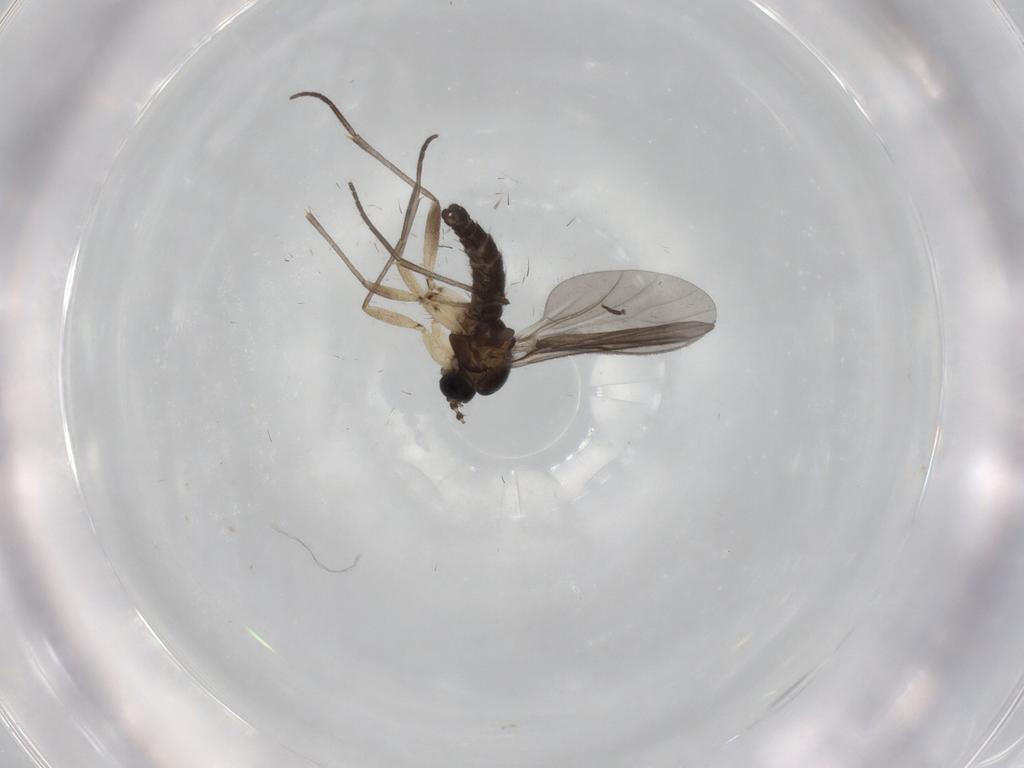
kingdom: Animalia
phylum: Arthropoda
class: Insecta
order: Diptera
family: Sciaridae
